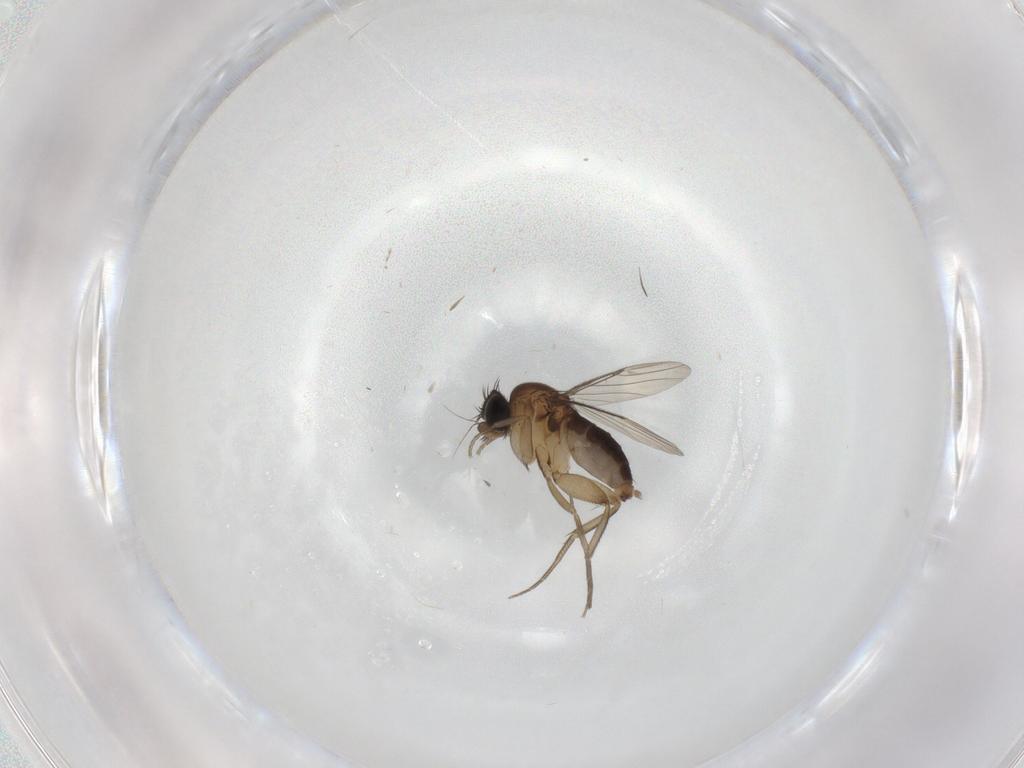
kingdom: Animalia
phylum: Arthropoda
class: Insecta
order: Diptera
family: Phoridae
